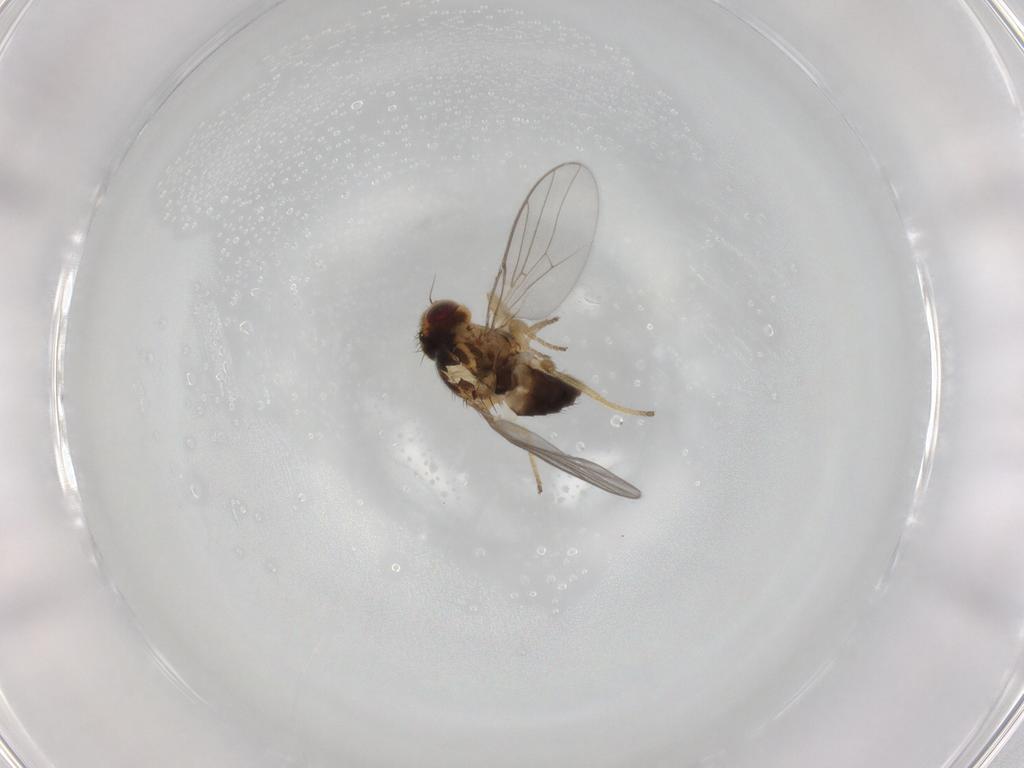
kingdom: Animalia
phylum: Arthropoda
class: Insecta
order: Diptera
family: Chloropidae
